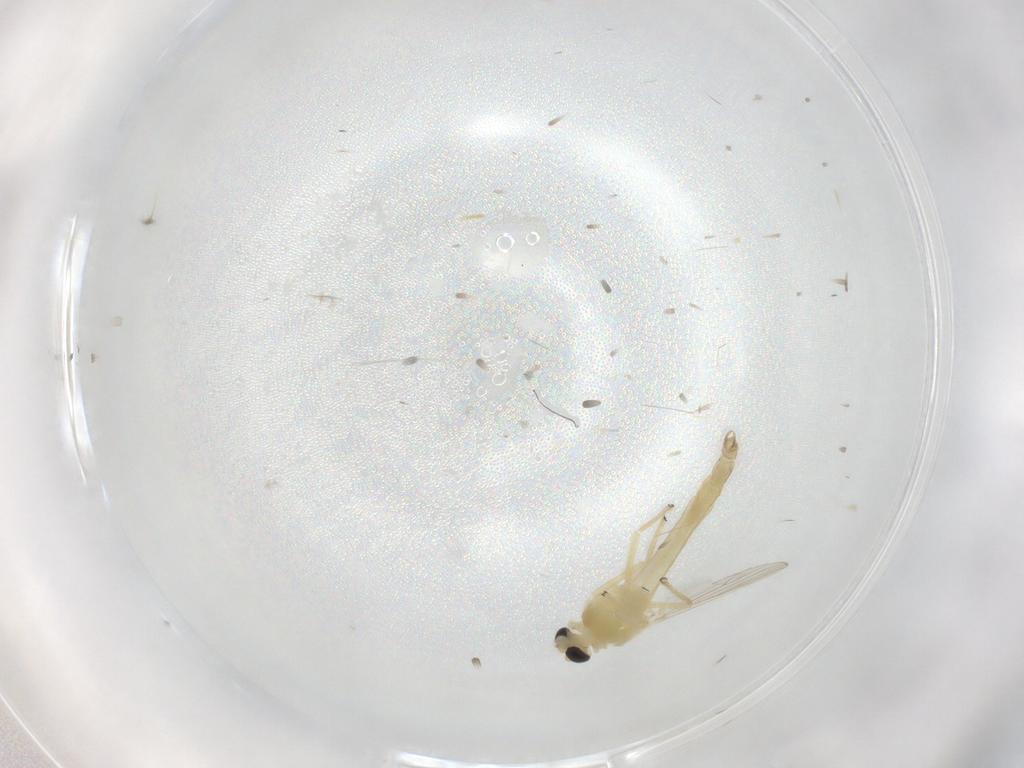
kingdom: Animalia
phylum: Arthropoda
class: Insecta
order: Diptera
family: Chironomidae
